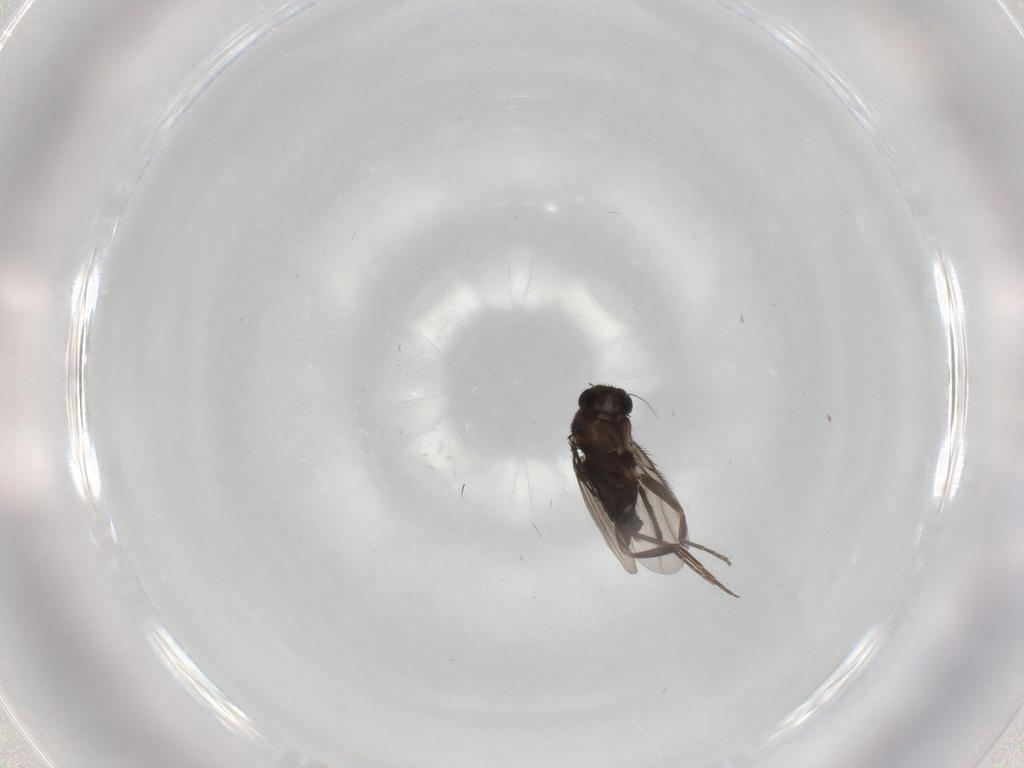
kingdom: Animalia
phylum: Arthropoda
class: Insecta
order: Diptera
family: Phoridae
